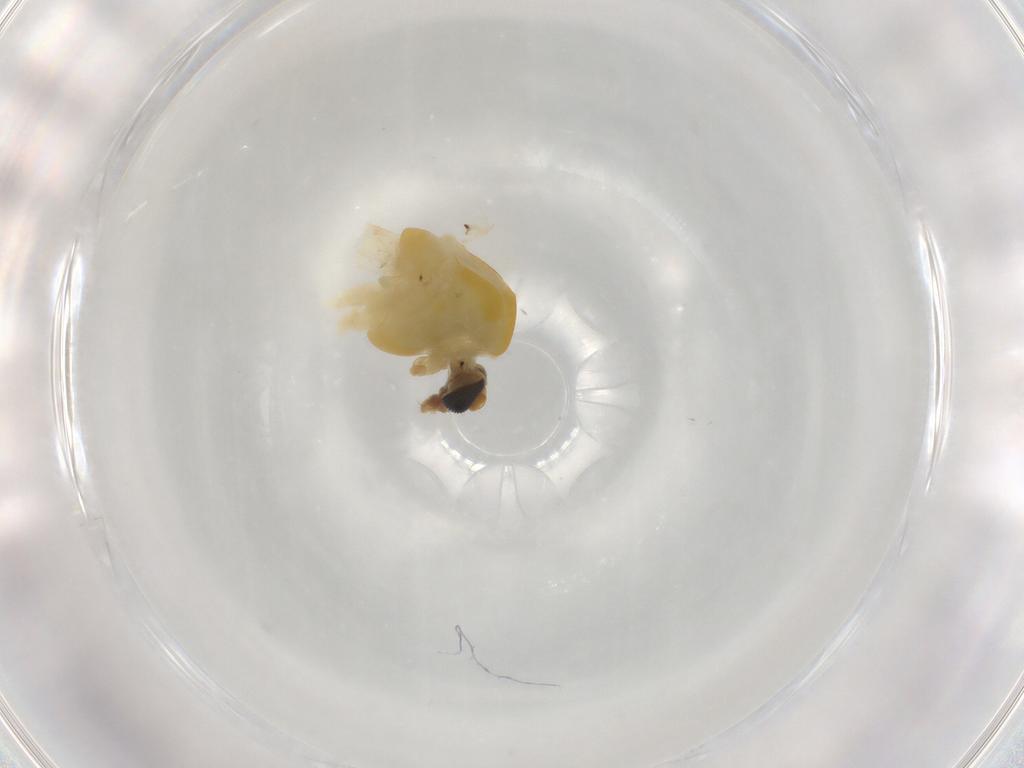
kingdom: Animalia
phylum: Arthropoda
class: Insecta
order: Diptera
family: Chironomidae
